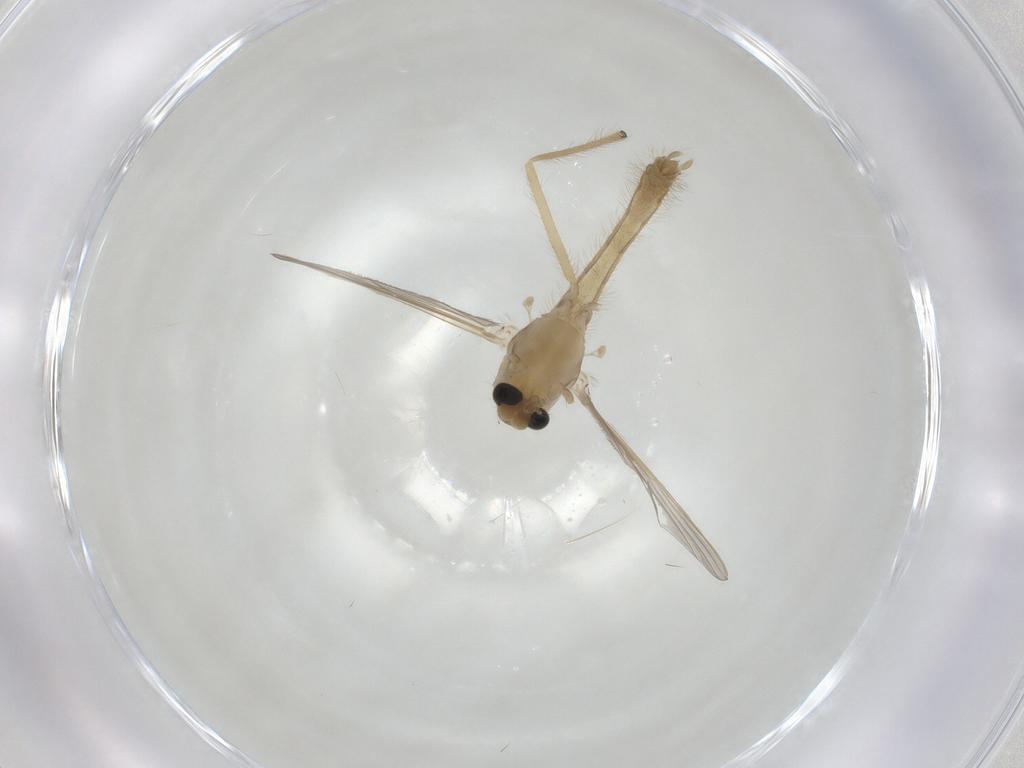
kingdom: Animalia
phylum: Arthropoda
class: Insecta
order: Diptera
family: Chironomidae
